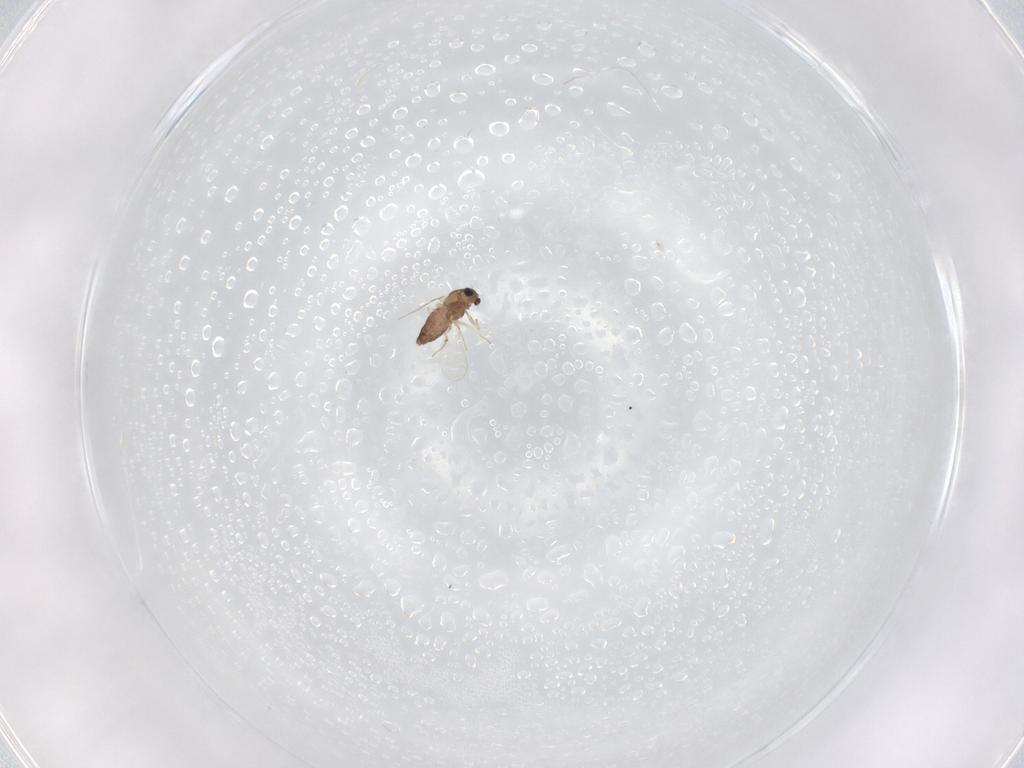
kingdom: Animalia
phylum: Arthropoda
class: Insecta
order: Diptera
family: Chironomidae
